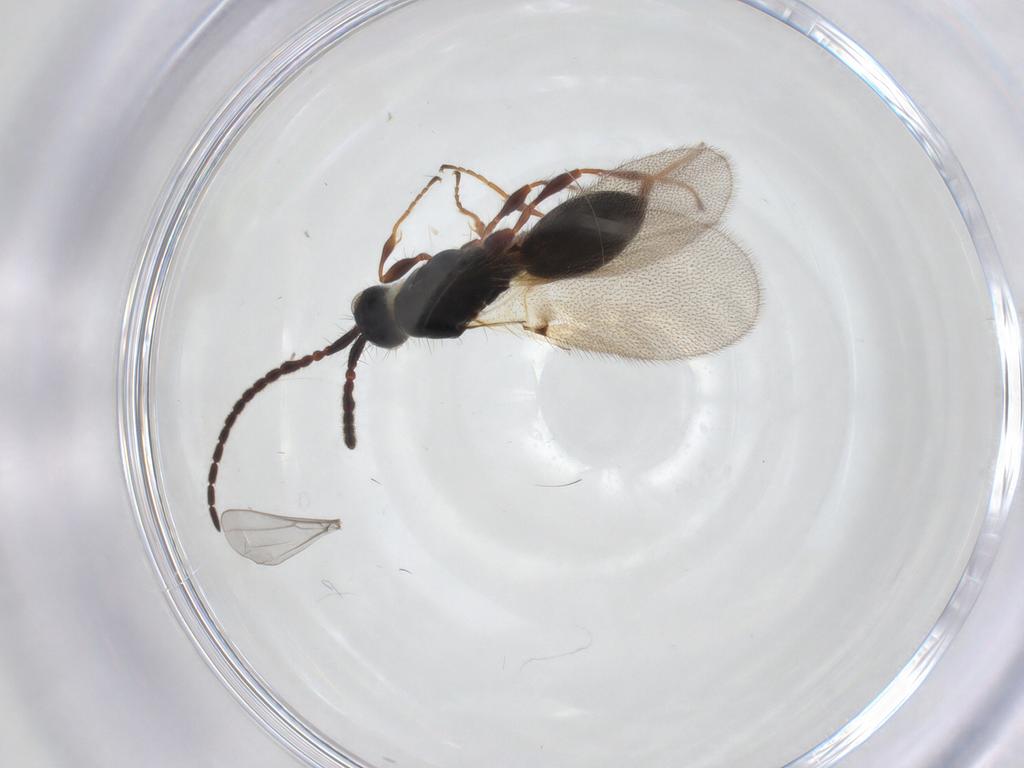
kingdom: Animalia
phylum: Arthropoda
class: Insecta
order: Hymenoptera
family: Diapriidae
